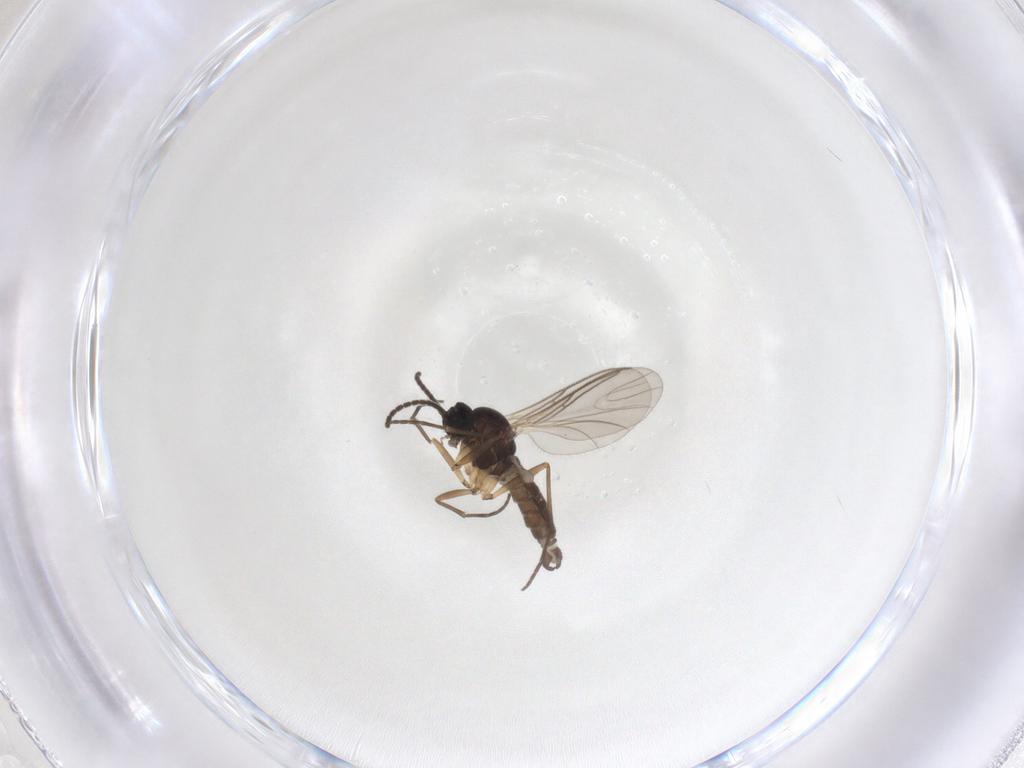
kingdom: Animalia
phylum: Arthropoda
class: Insecta
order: Diptera
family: Sciaridae
